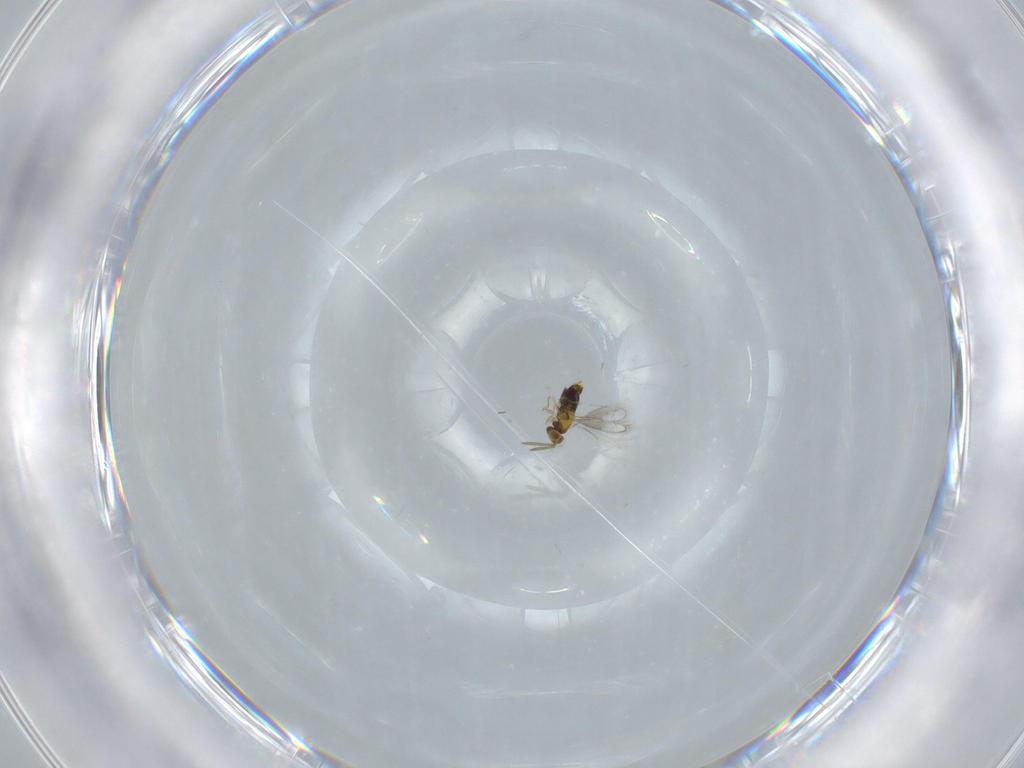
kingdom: Animalia
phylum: Arthropoda
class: Insecta
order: Hymenoptera
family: Aphelinidae
